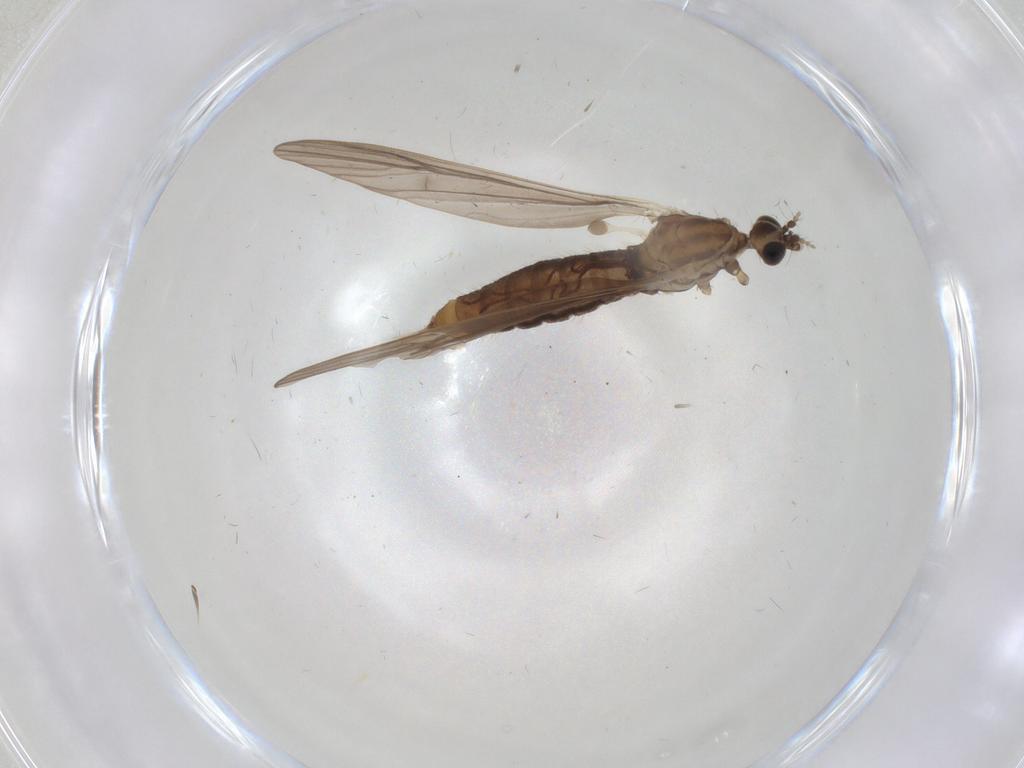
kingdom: Animalia
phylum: Arthropoda
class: Insecta
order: Diptera
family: Limoniidae
